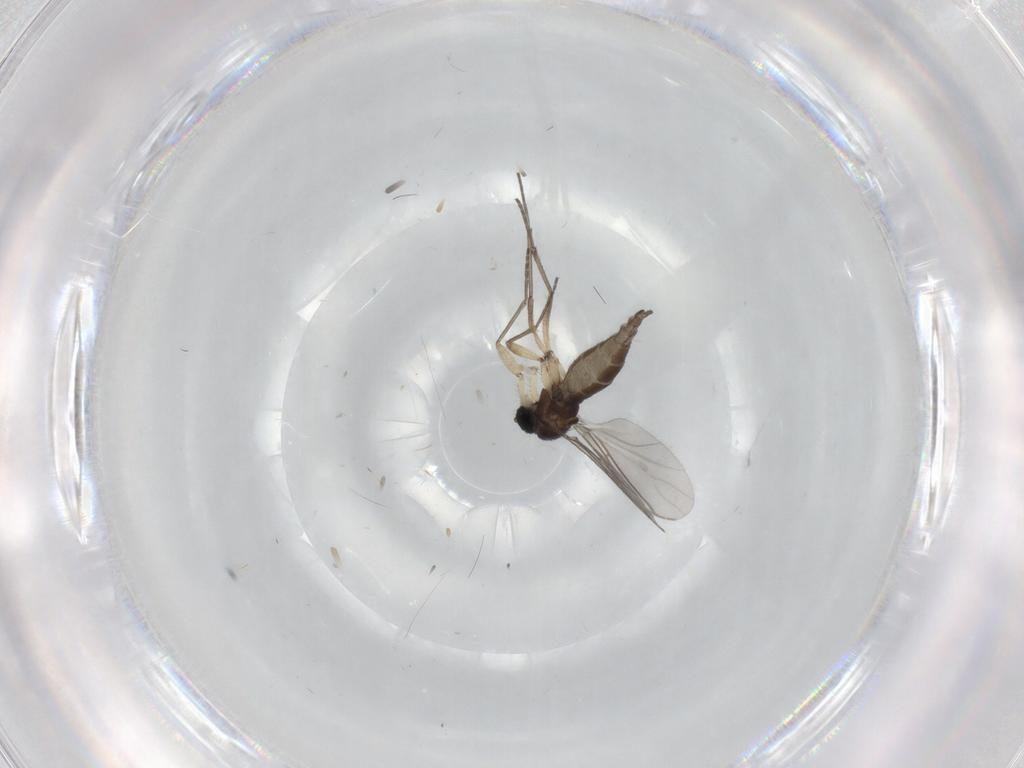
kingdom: Animalia
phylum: Arthropoda
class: Insecta
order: Diptera
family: Sciaridae
